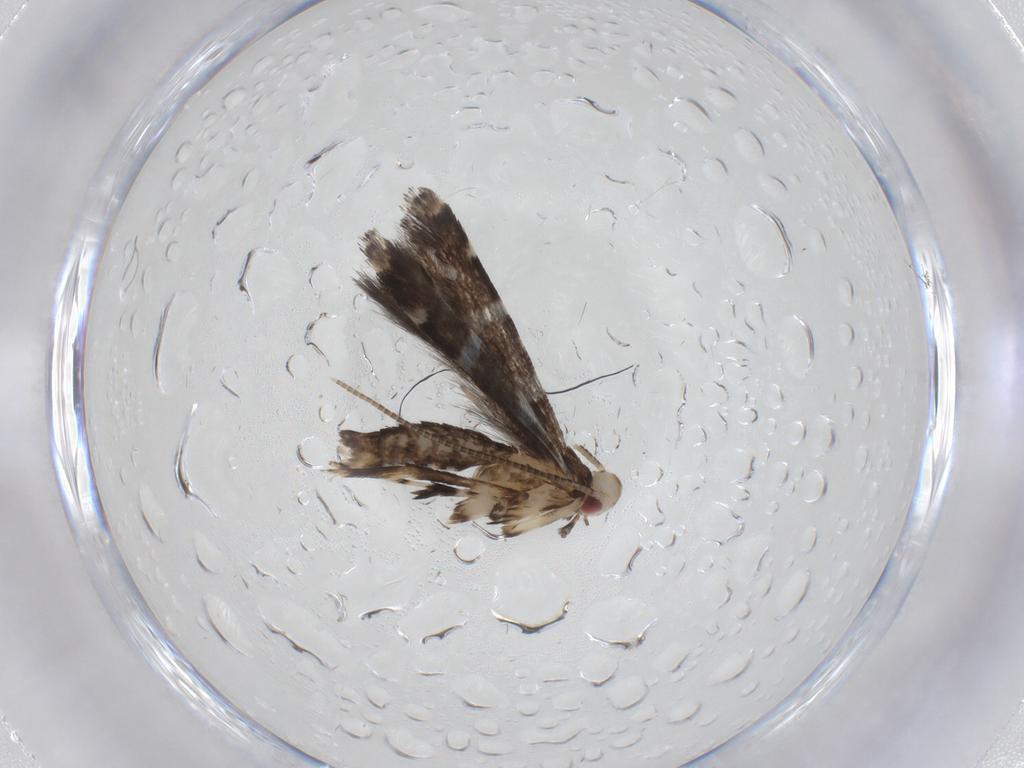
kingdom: Animalia
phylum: Arthropoda
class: Insecta
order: Lepidoptera
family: Gracillariidae
